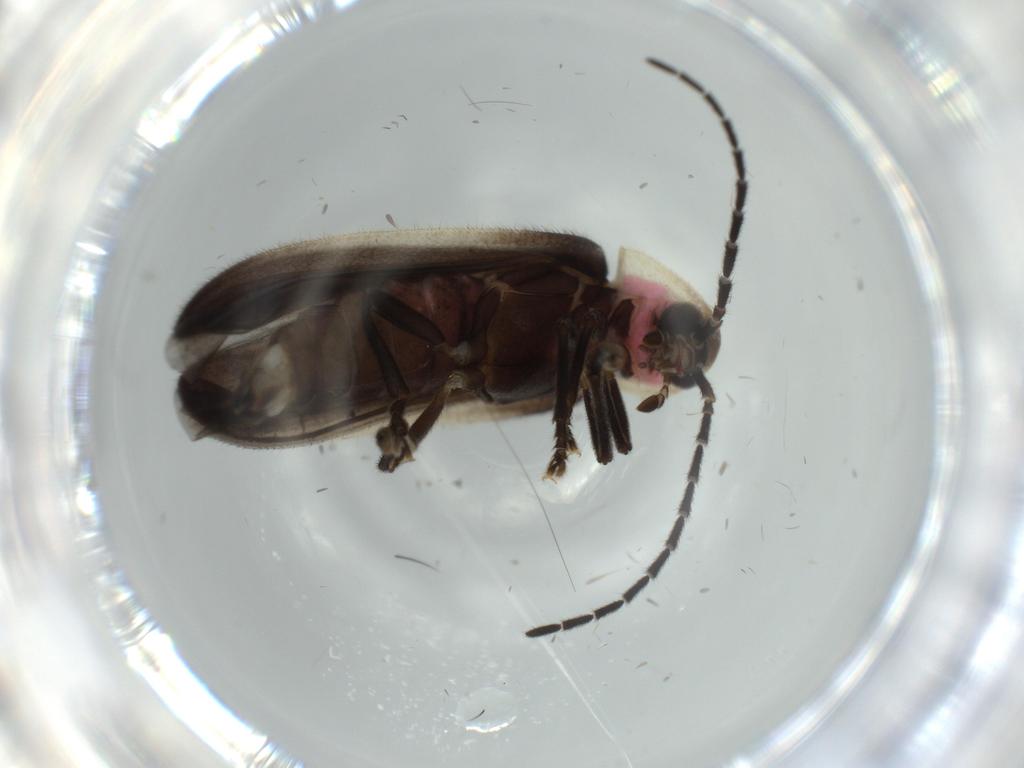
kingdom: Animalia
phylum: Arthropoda
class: Insecta
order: Coleoptera
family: Lampyridae
